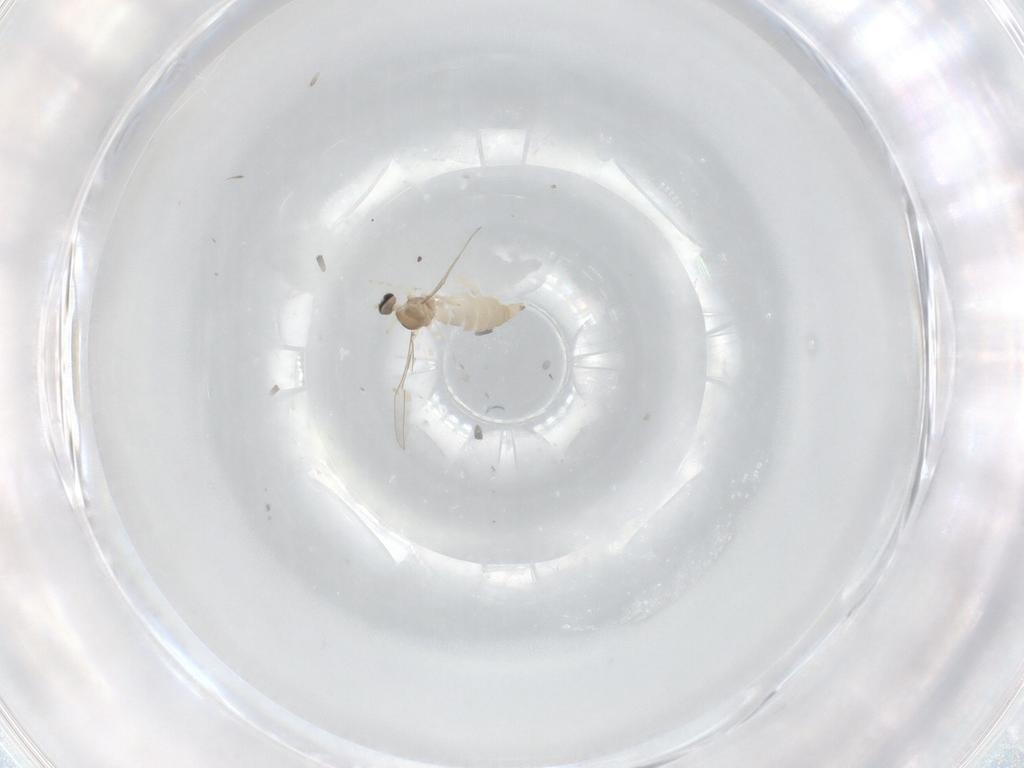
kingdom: Animalia
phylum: Arthropoda
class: Insecta
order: Diptera
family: Cecidomyiidae
